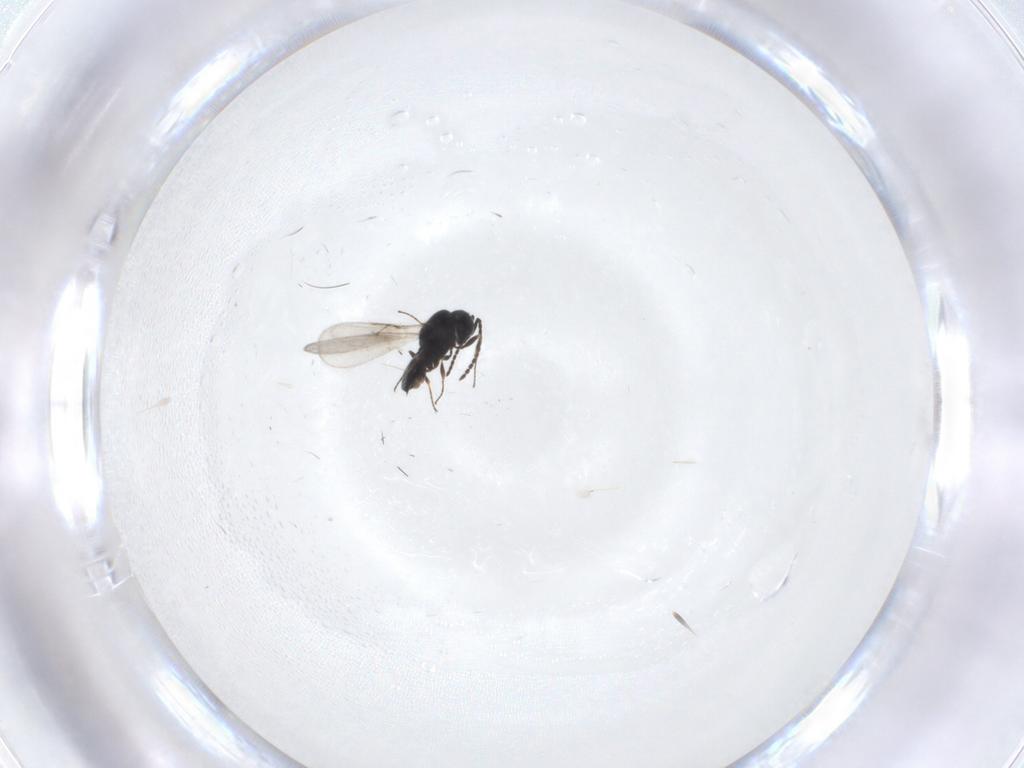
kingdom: Animalia
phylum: Arthropoda
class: Insecta
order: Hymenoptera
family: Scelionidae
